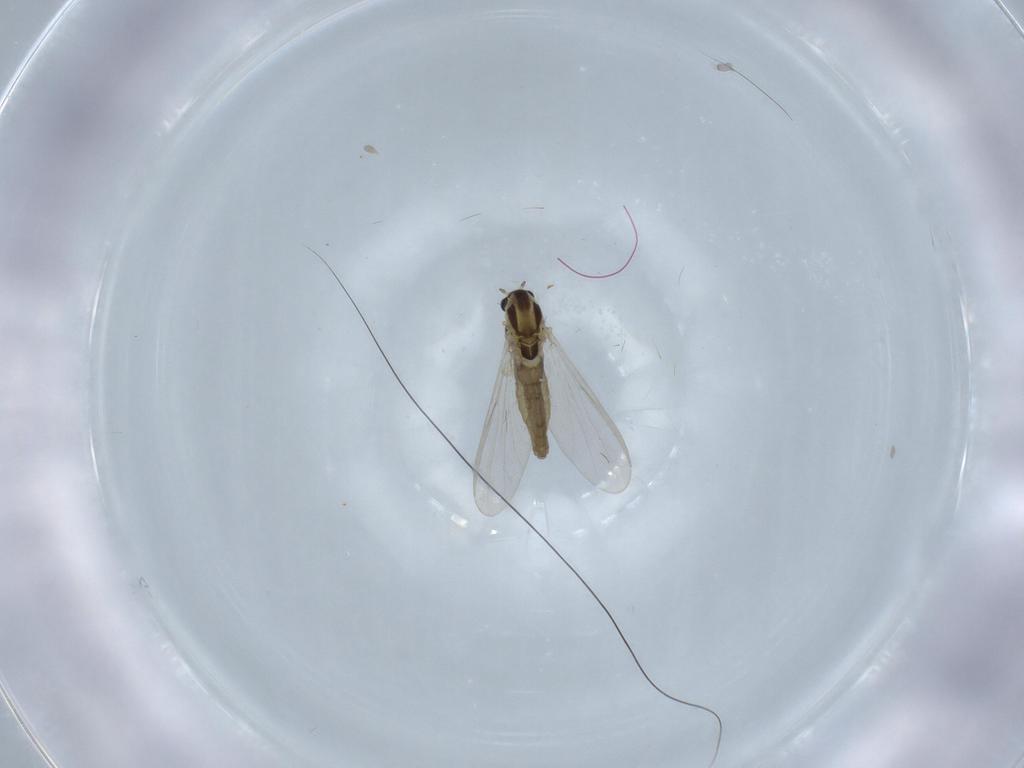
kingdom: Animalia
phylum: Arthropoda
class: Insecta
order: Diptera
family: Chironomidae
